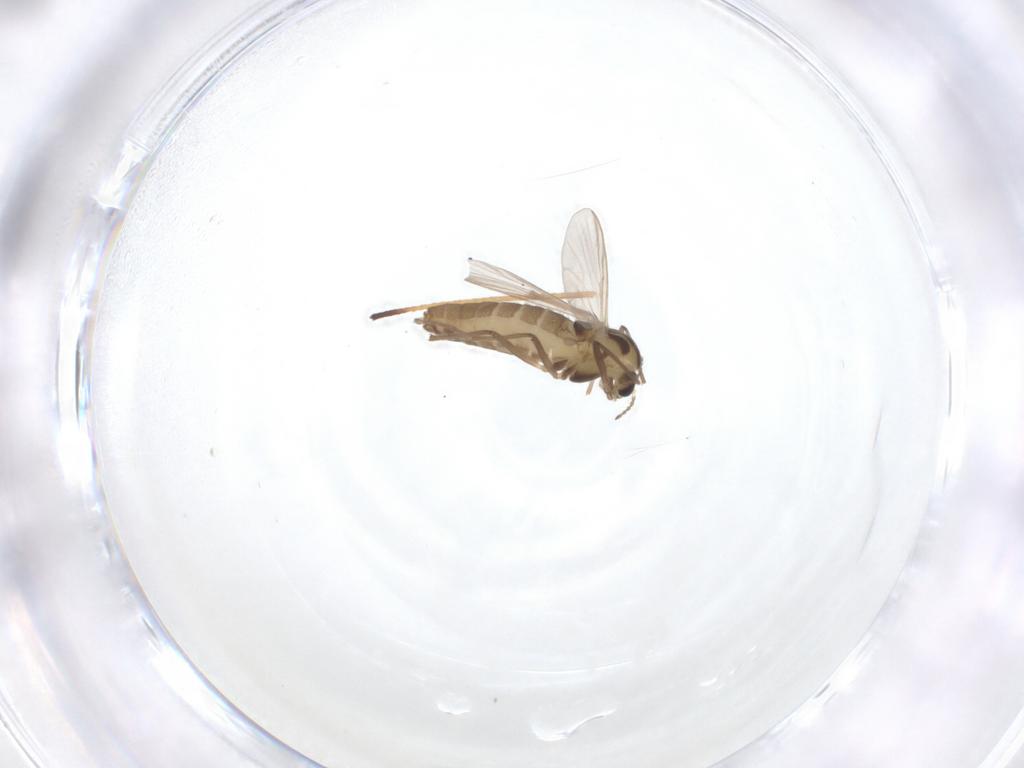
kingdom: Animalia
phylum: Arthropoda
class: Insecta
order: Diptera
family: Chironomidae
